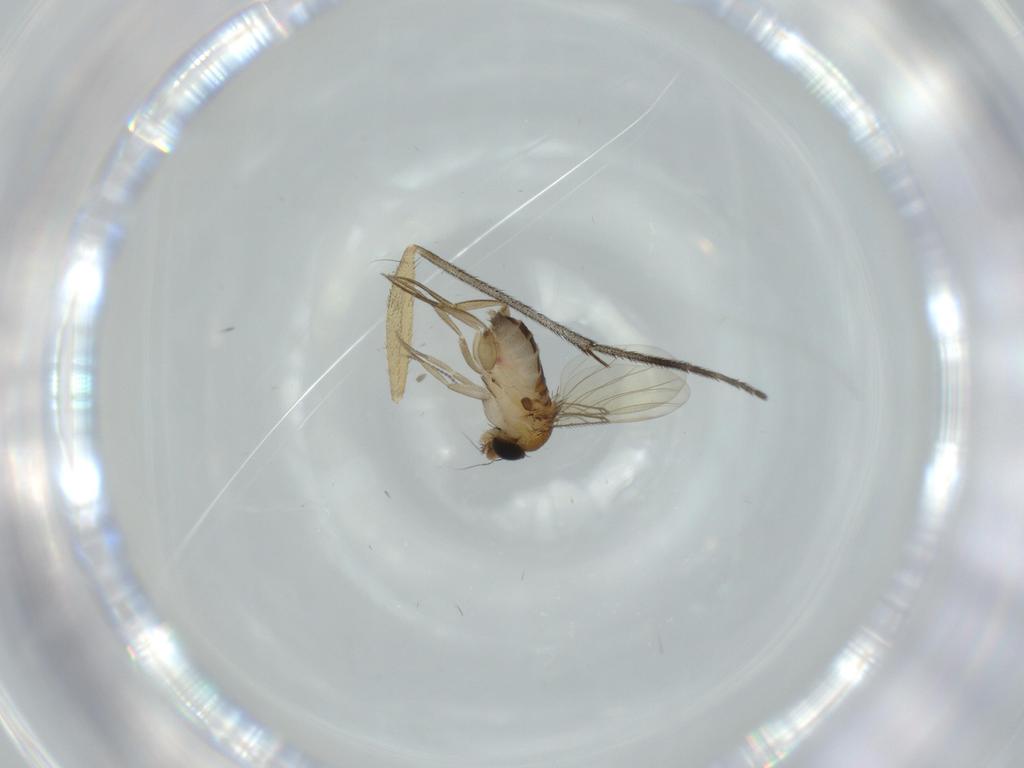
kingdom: Animalia
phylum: Arthropoda
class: Insecta
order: Diptera
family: Phoridae
